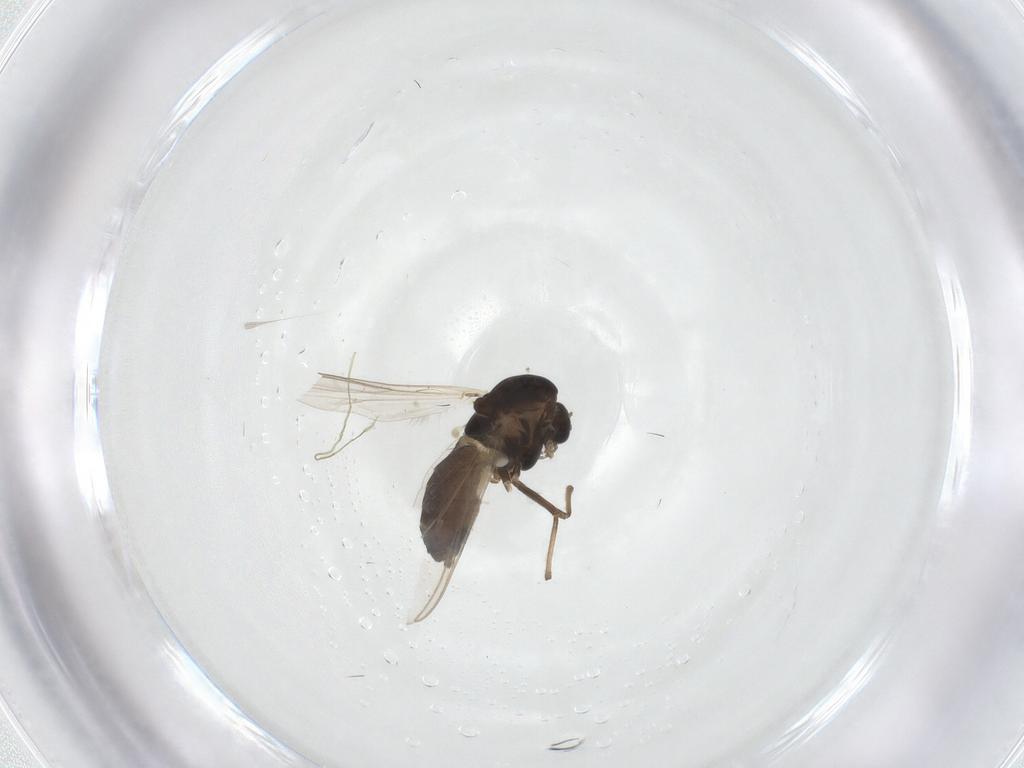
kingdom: Animalia
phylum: Arthropoda
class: Insecta
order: Diptera
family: Chironomidae
